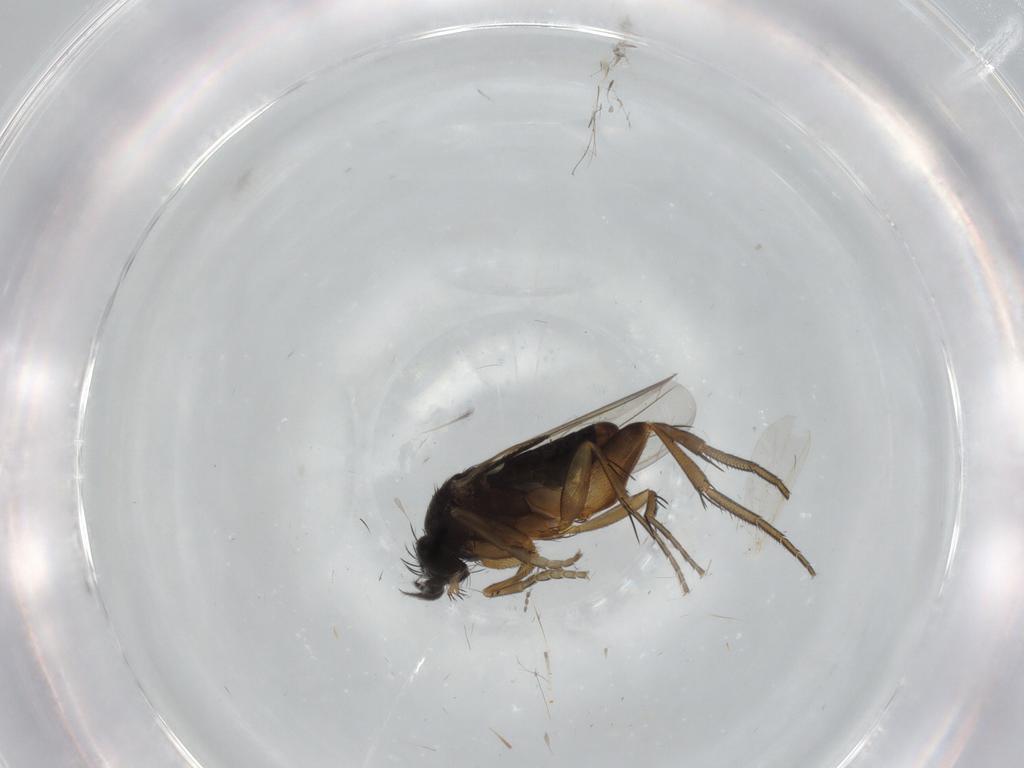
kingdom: Animalia
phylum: Arthropoda
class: Insecta
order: Diptera
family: Phoridae
